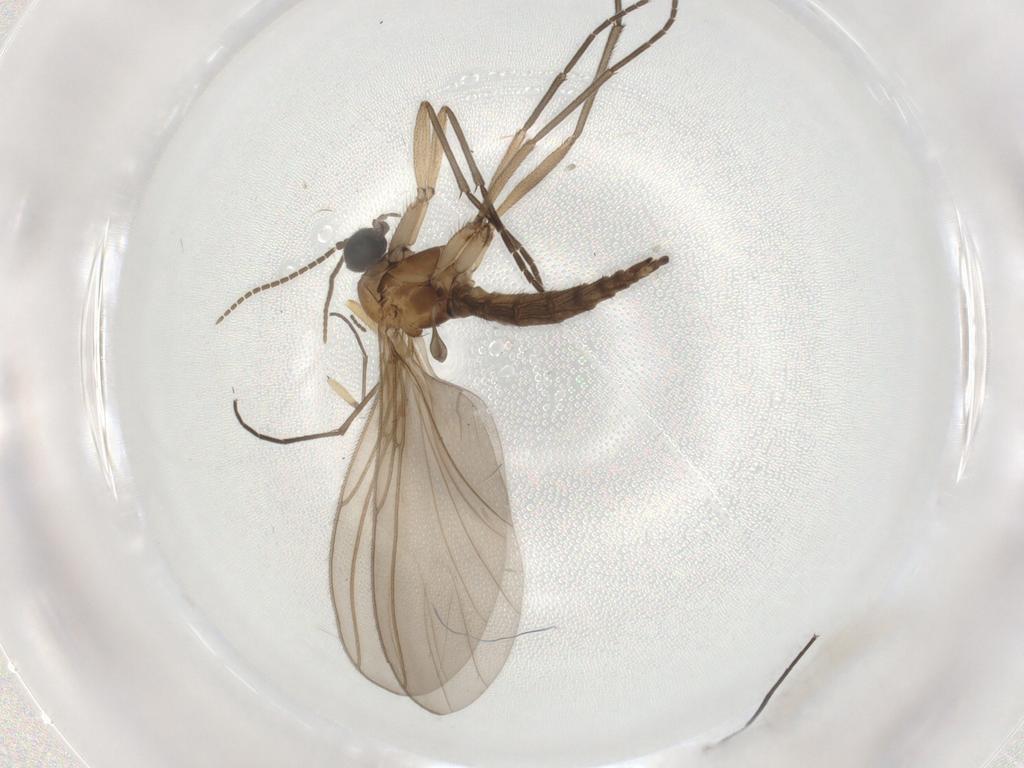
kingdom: Animalia
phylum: Arthropoda
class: Insecta
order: Diptera
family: Sciaridae
